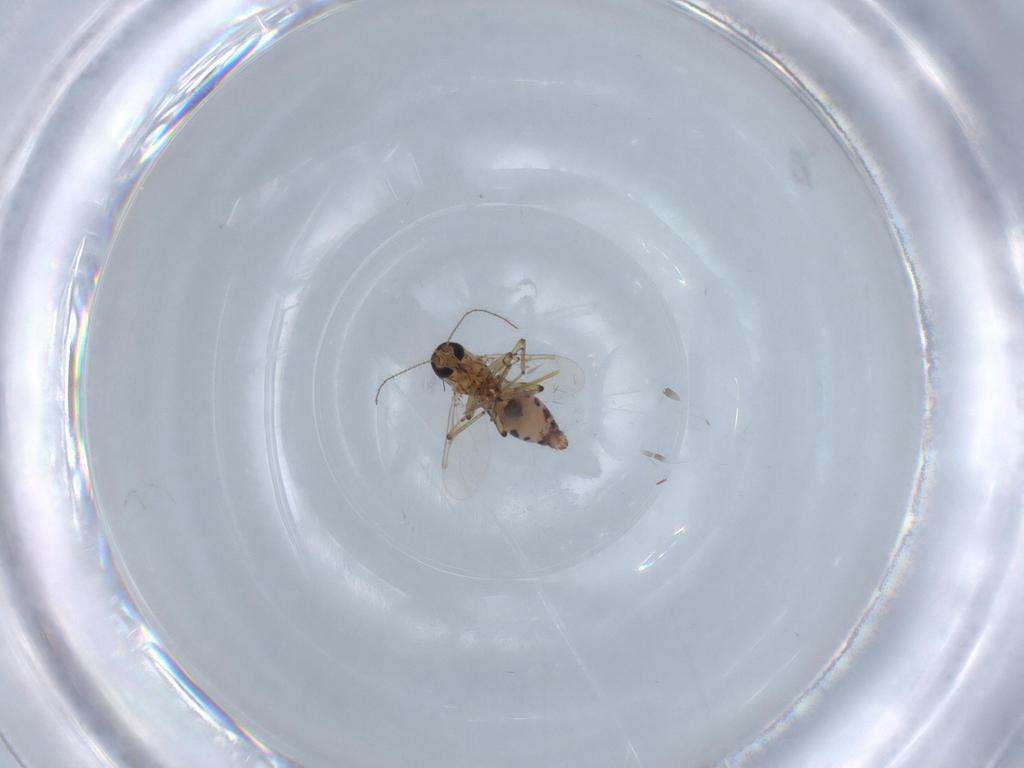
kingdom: Animalia
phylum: Arthropoda
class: Insecta
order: Diptera
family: Ceratopogonidae
